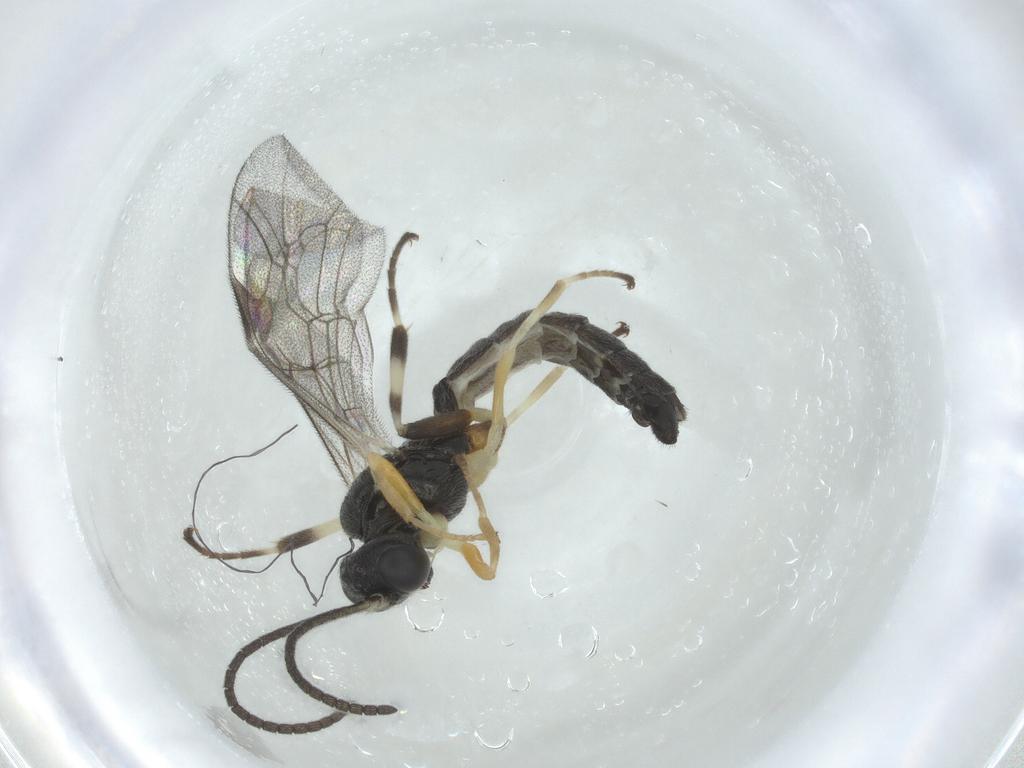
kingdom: Animalia
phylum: Arthropoda
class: Insecta
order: Hymenoptera
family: Ichneumonidae
